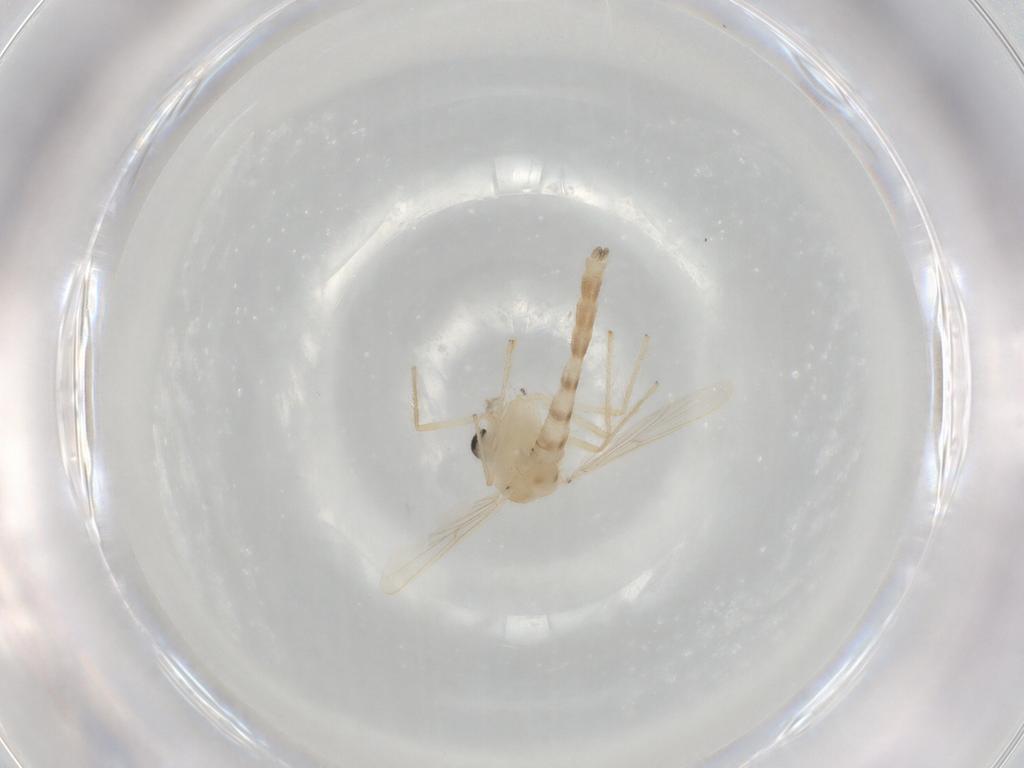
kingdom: Animalia
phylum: Arthropoda
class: Insecta
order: Diptera
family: Chironomidae
